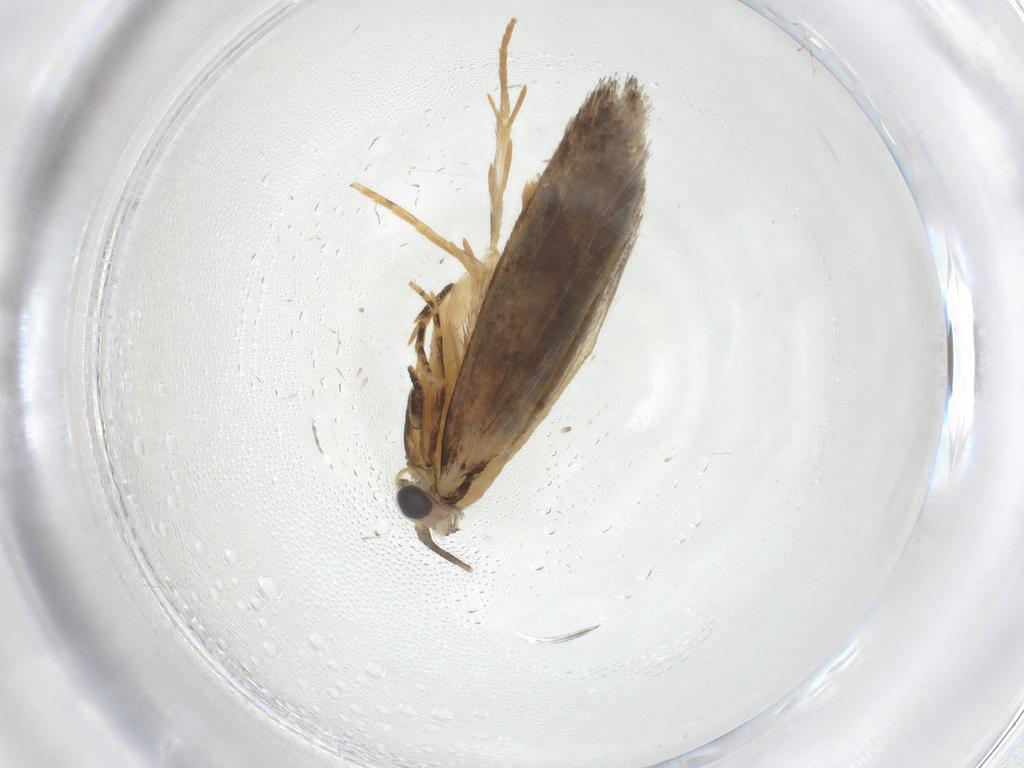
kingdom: Animalia
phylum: Arthropoda
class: Insecta
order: Lepidoptera
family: Tineidae
